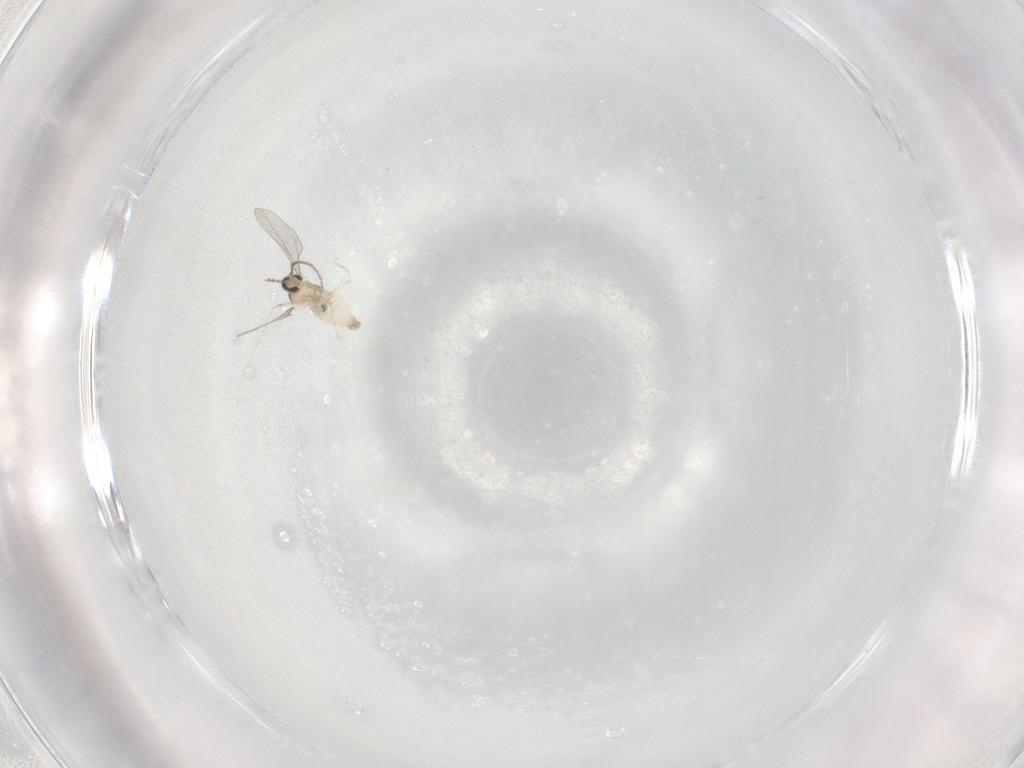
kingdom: Animalia
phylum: Arthropoda
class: Insecta
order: Diptera
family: Cecidomyiidae
